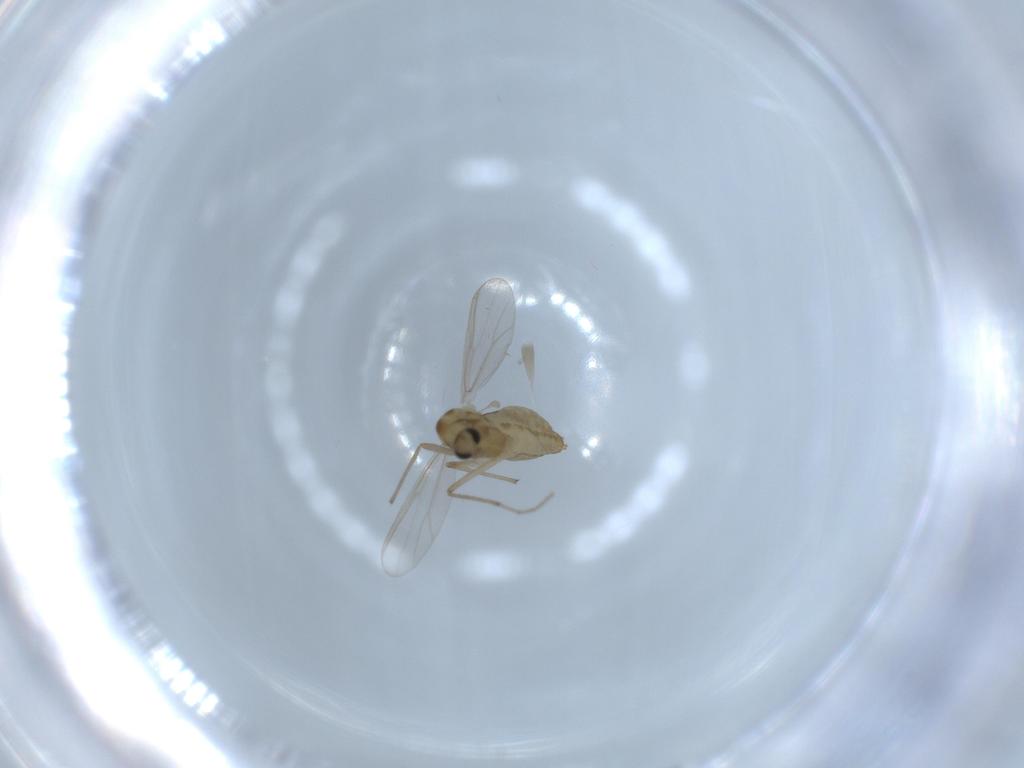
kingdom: Animalia
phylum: Arthropoda
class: Insecta
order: Diptera
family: Chironomidae
